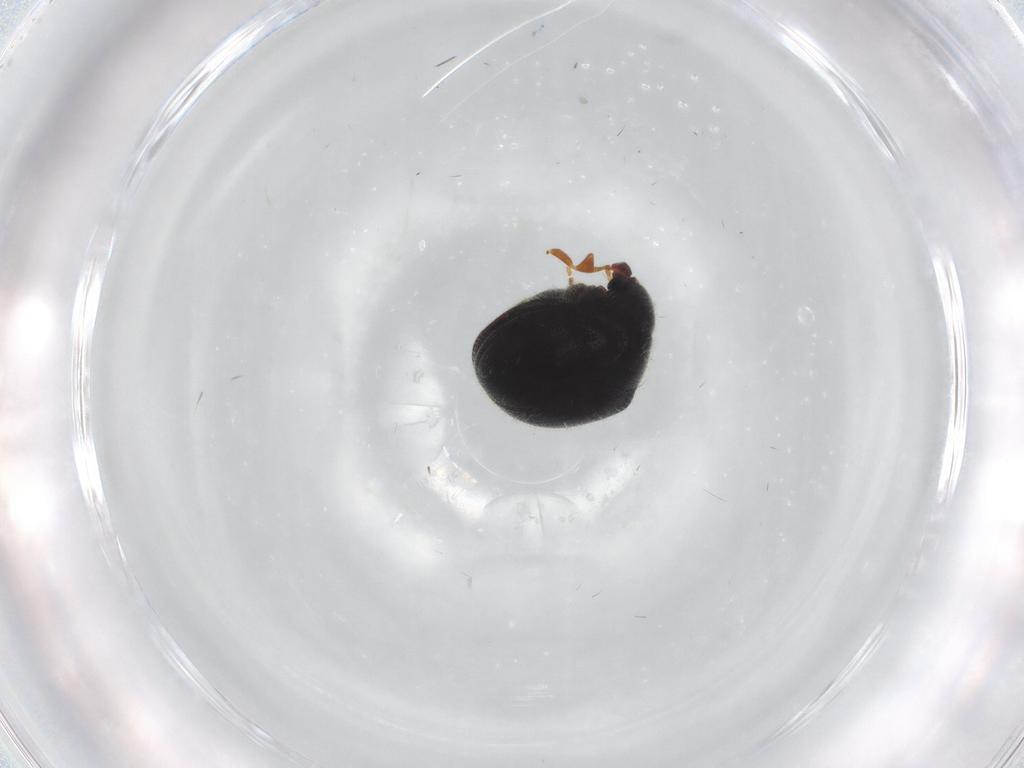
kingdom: Animalia
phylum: Arthropoda
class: Insecta
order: Coleoptera
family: Ptinidae
